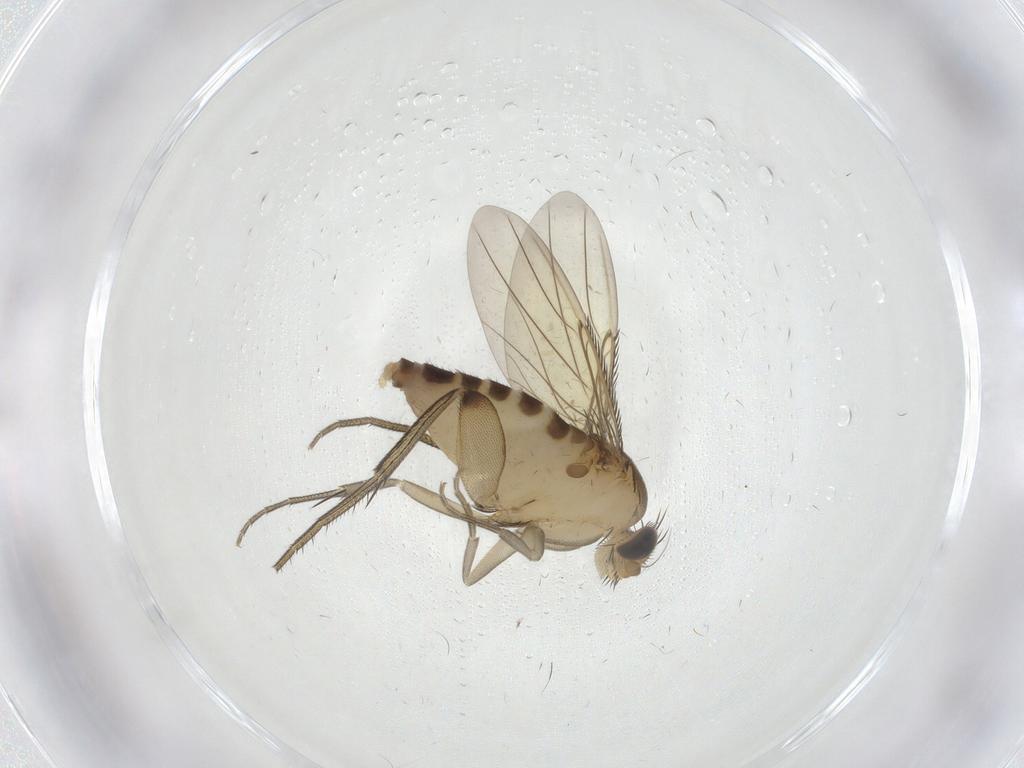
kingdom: Animalia
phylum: Arthropoda
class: Insecta
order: Diptera
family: Phoridae
